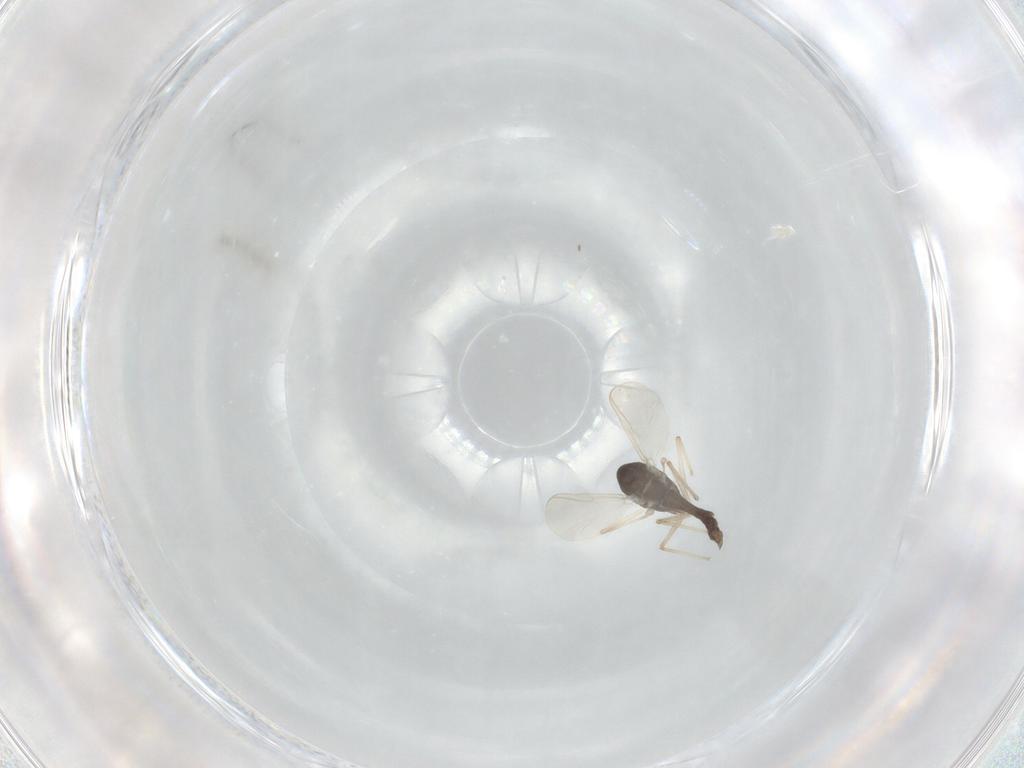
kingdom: Animalia
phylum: Arthropoda
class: Insecta
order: Diptera
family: Chironomidae
